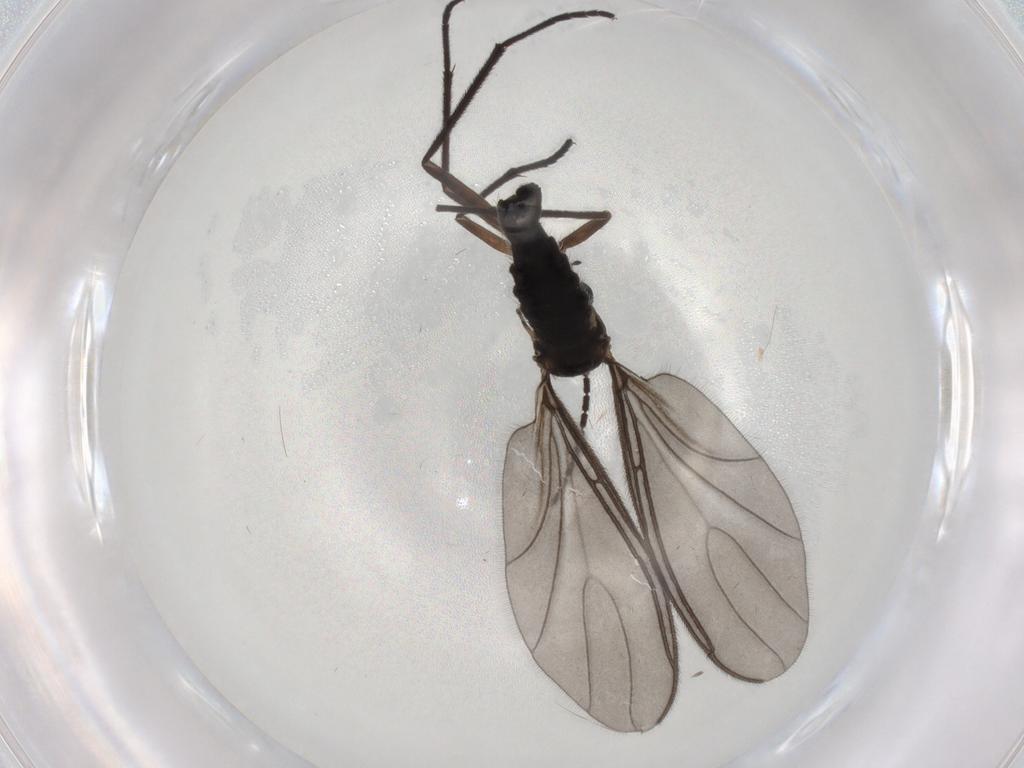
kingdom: Animalia
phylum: Arthropoda
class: Insecta
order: Diptera
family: Sciaridae
